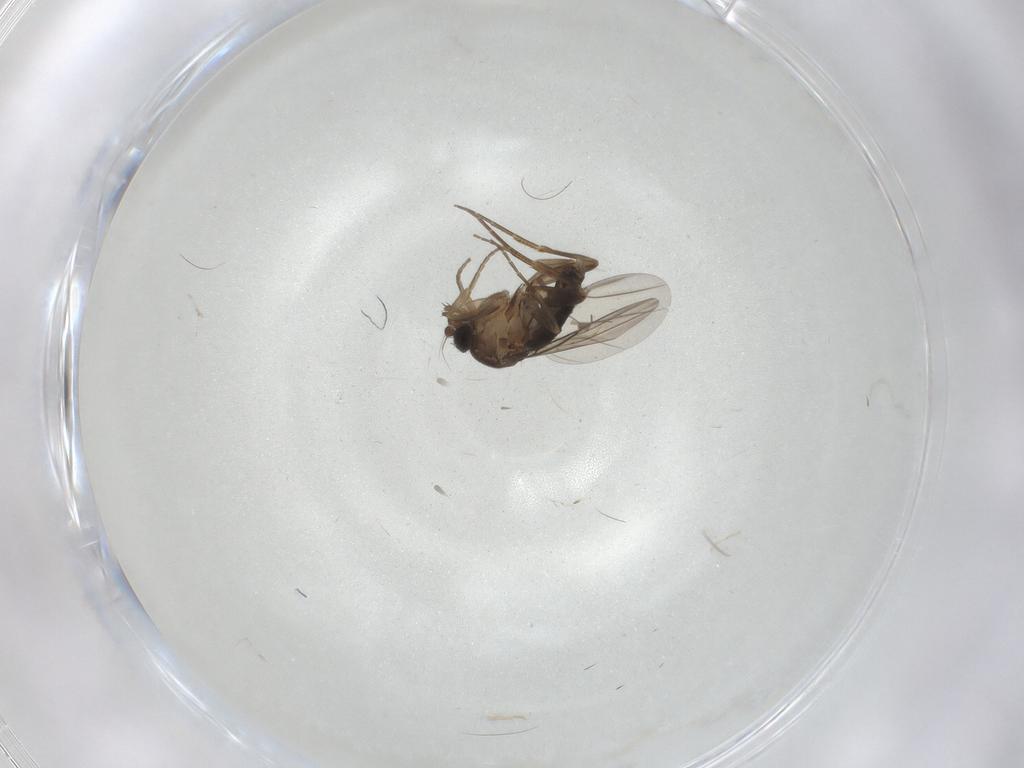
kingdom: Animalia
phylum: Arthropoda
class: Insecta
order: Diptera
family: Phoridae
